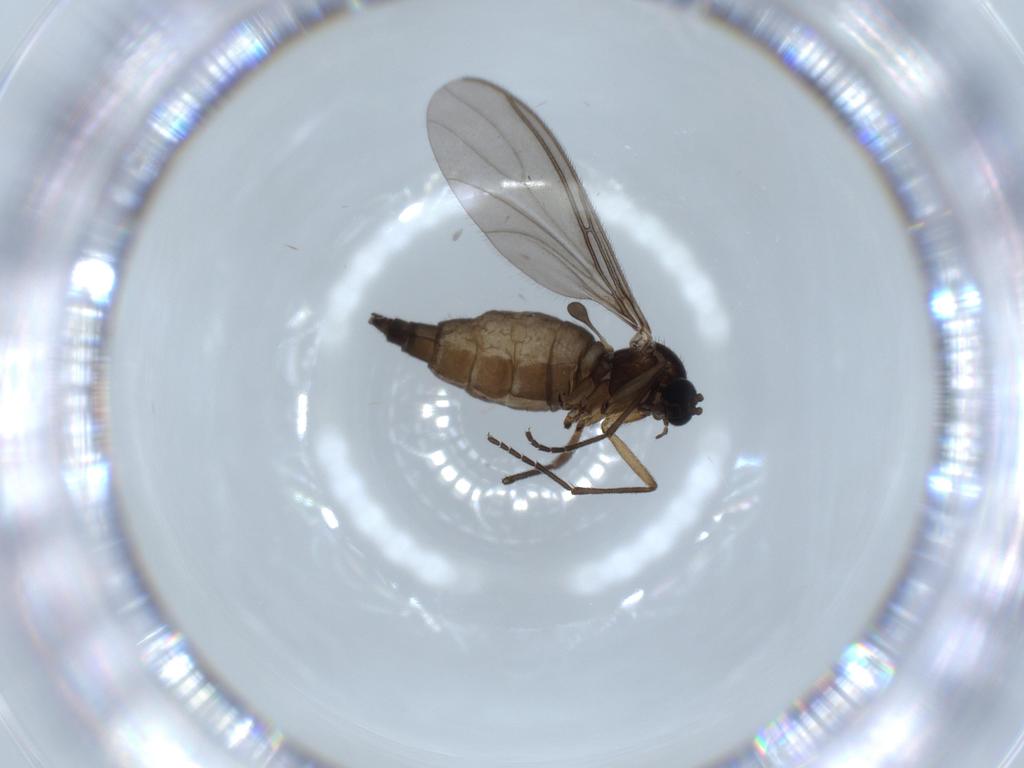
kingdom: Animalia
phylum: Arthropoda
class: Insecta
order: Diptera
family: Sciaridae
